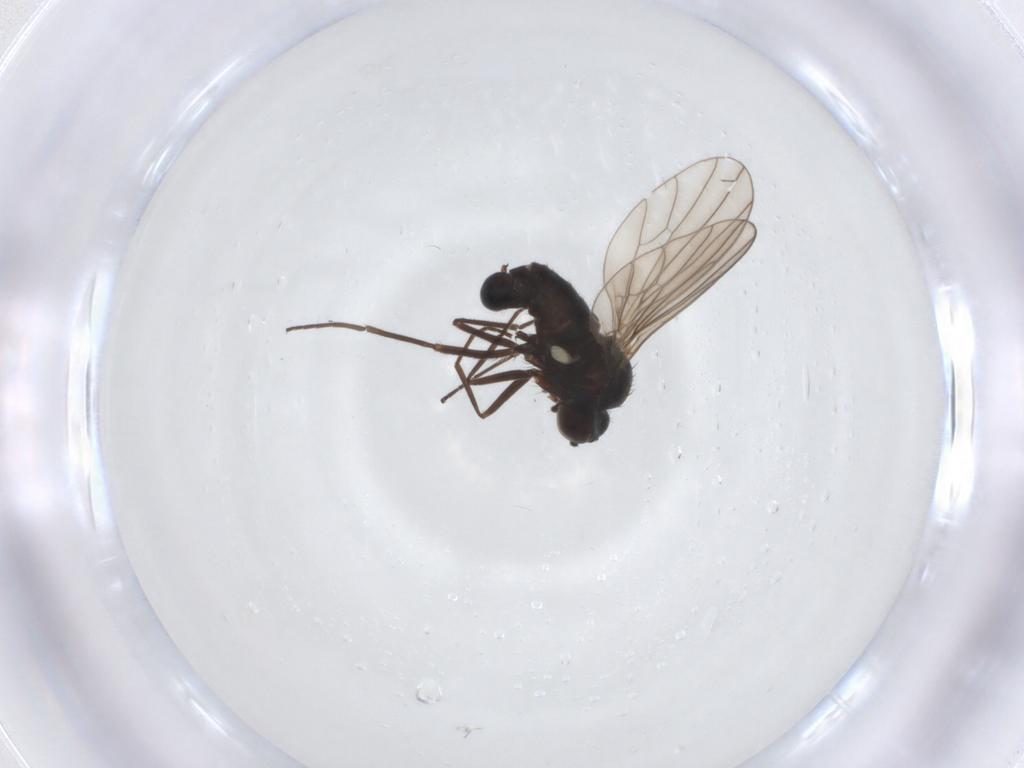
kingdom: Animalia
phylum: Arthropoda
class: Insecta
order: Diptera
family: Dolichopodidae
